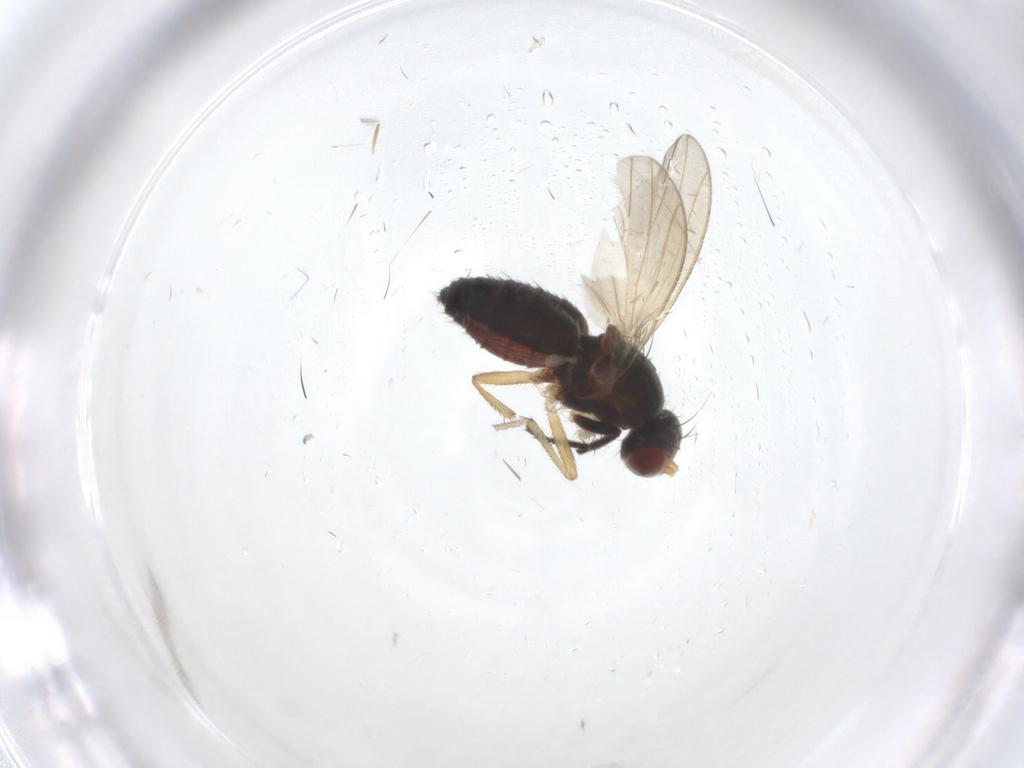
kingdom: Animalia
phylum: Arthropoda
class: Insecta
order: Diptera
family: Heleomyzidae
